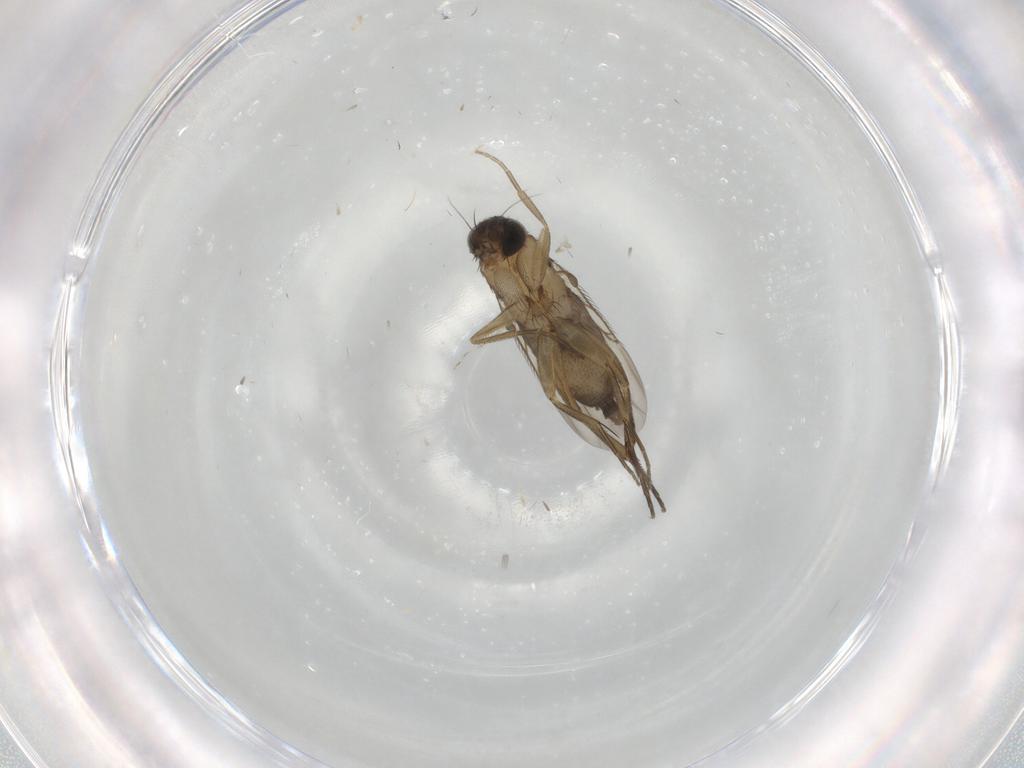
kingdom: Animalia
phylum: Arthropoda
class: Insecta
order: Diptera
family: Phoridae
